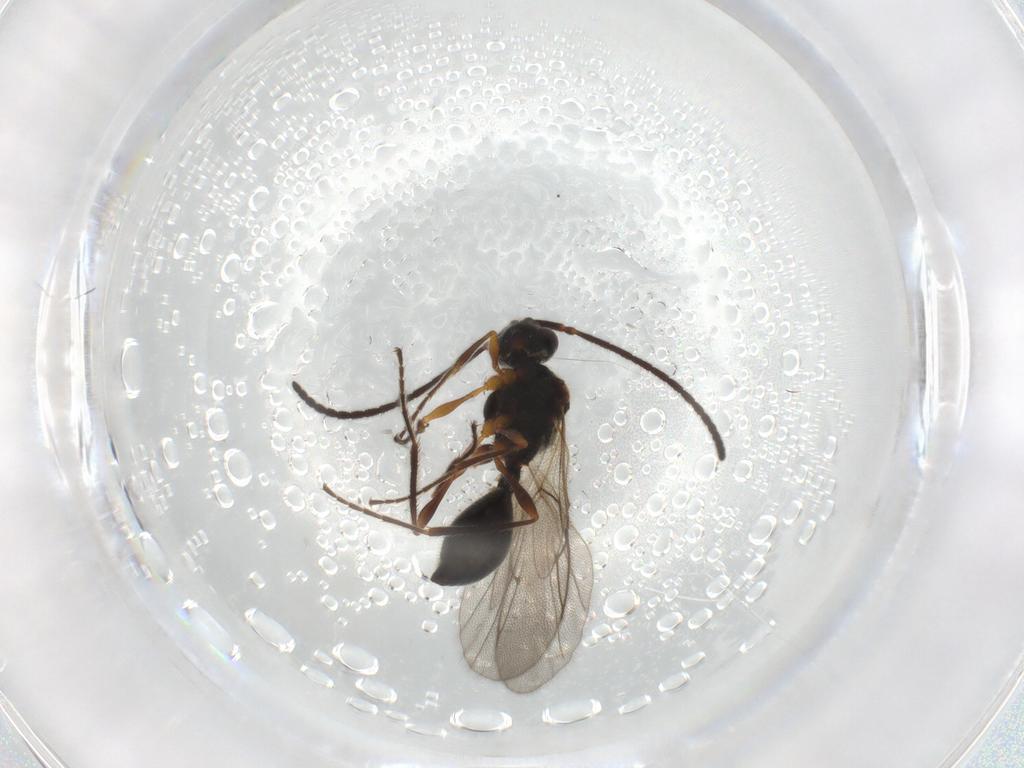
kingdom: Animalia
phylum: Arthropoda
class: Insecta
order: Hymenoptera
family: Diapriidae
